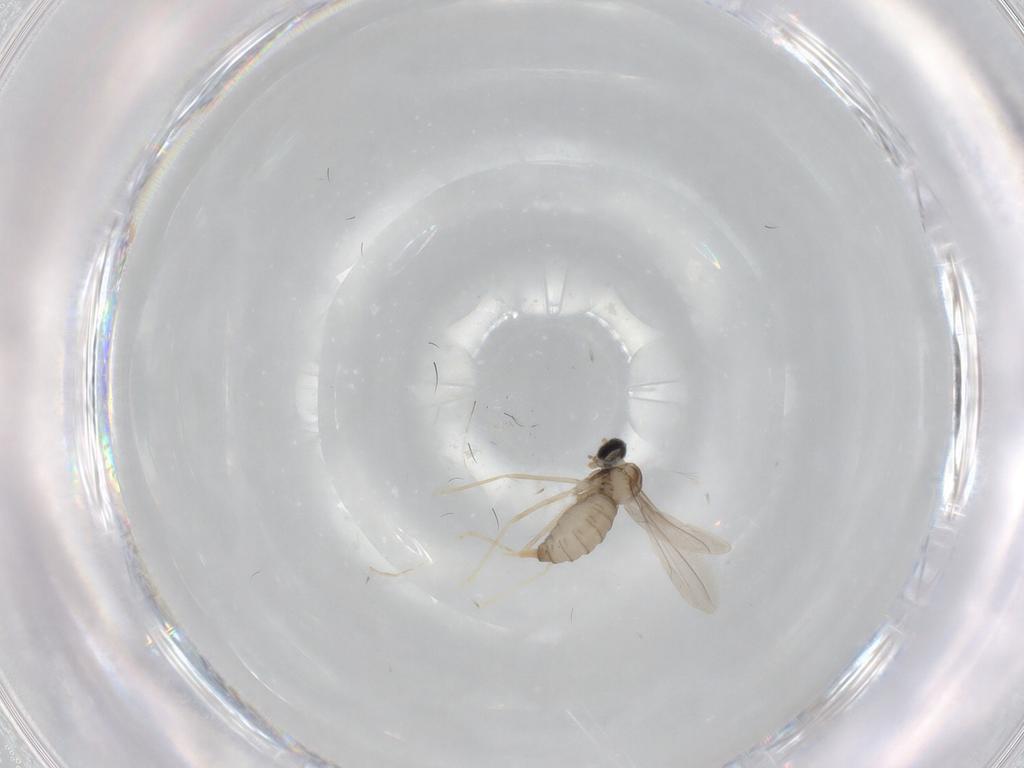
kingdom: Animalia
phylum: Arthropoda
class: Insecta
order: Diptera
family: Cecidomyiidae
